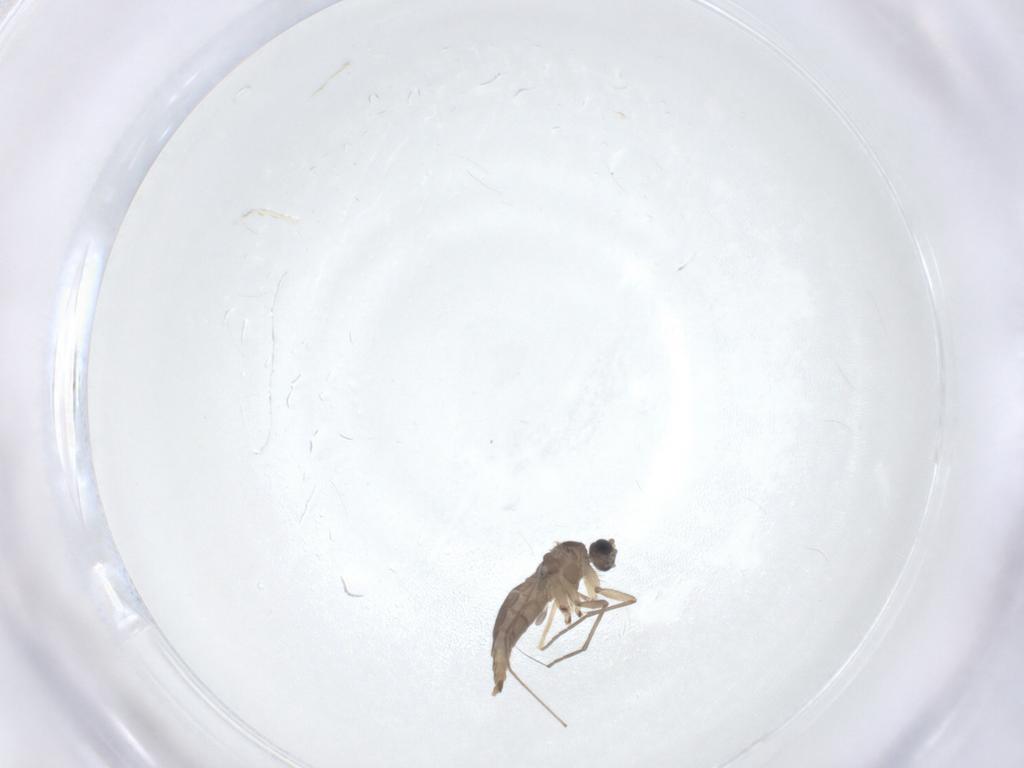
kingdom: Animalia
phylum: Arthropoda
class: Insecta
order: Diptera
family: Sciaridae
